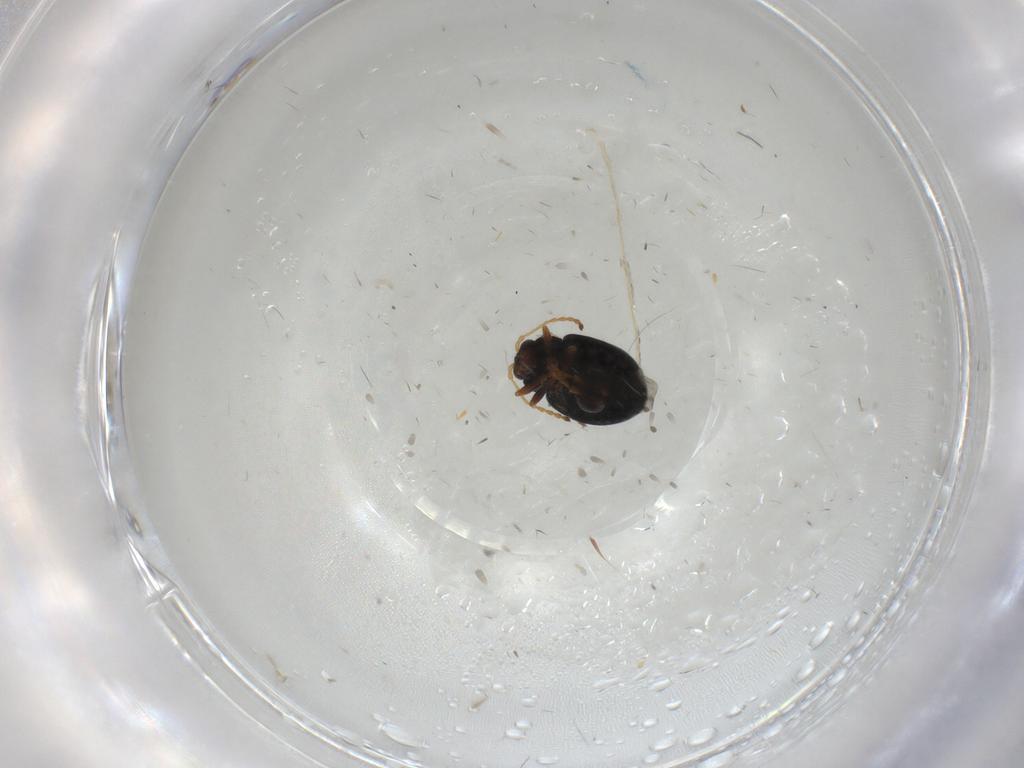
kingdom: Animalia
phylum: Arthropoda
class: Insecta
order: Coleoptera
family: Chrysomelidae
